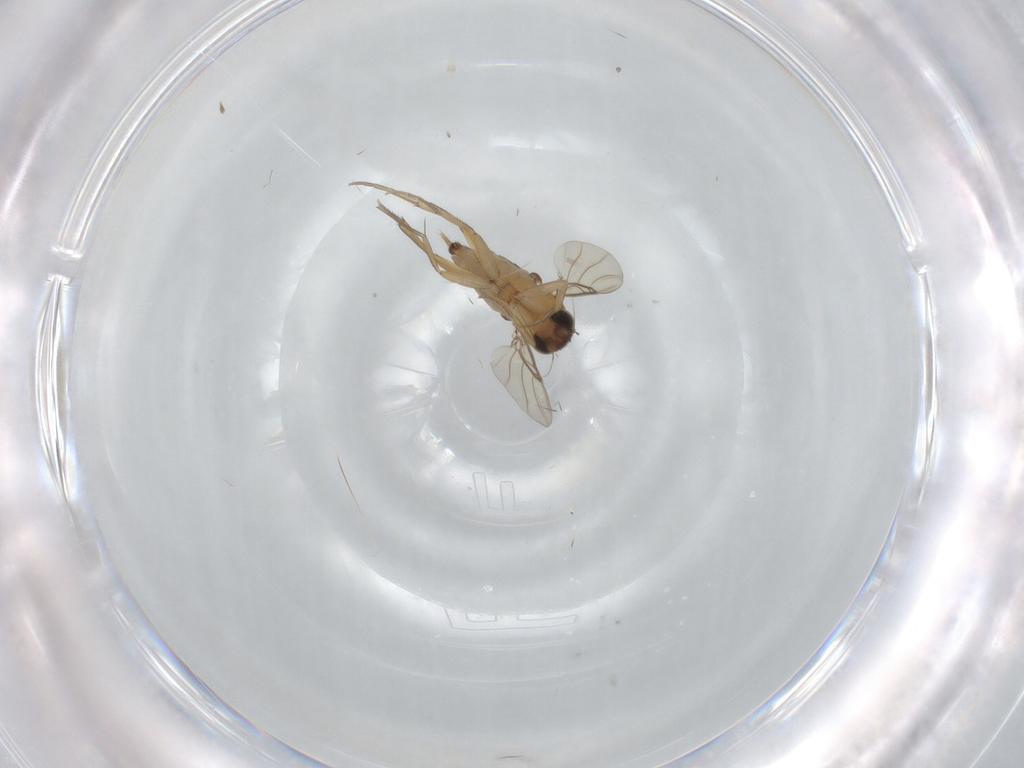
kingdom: Animalia
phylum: Arthropoda
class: Insecta
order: Diptera
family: Phoridae
